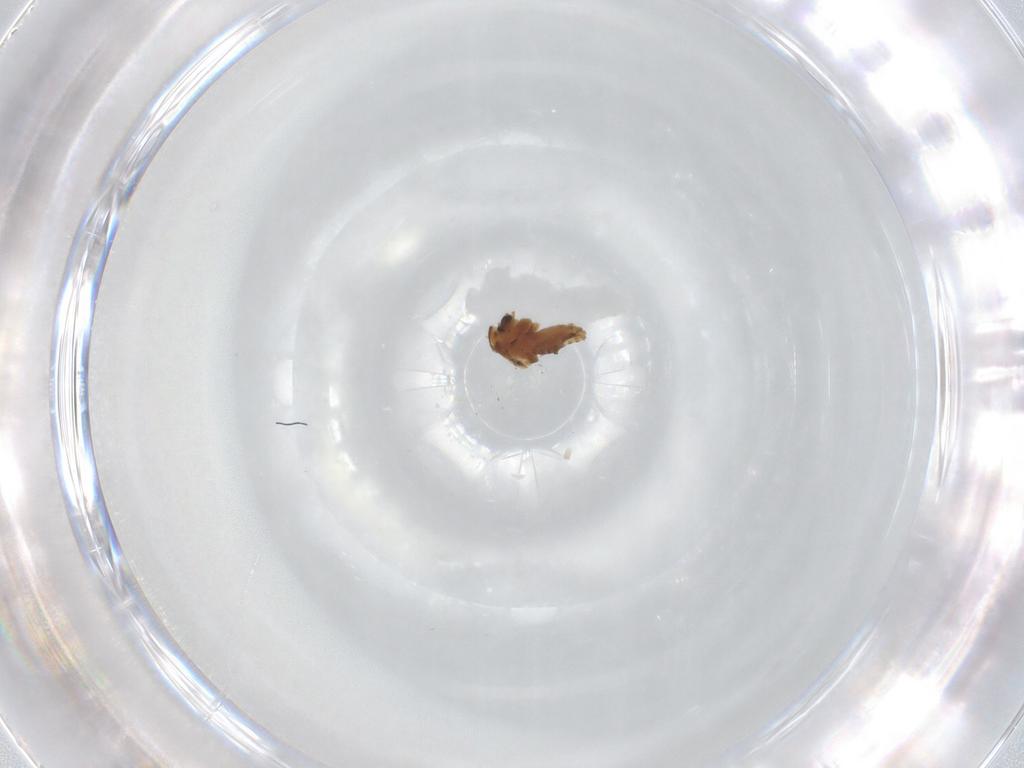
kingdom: Animalia
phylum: Arthropoda
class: Insecta
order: Diptera
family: Chironomidae
